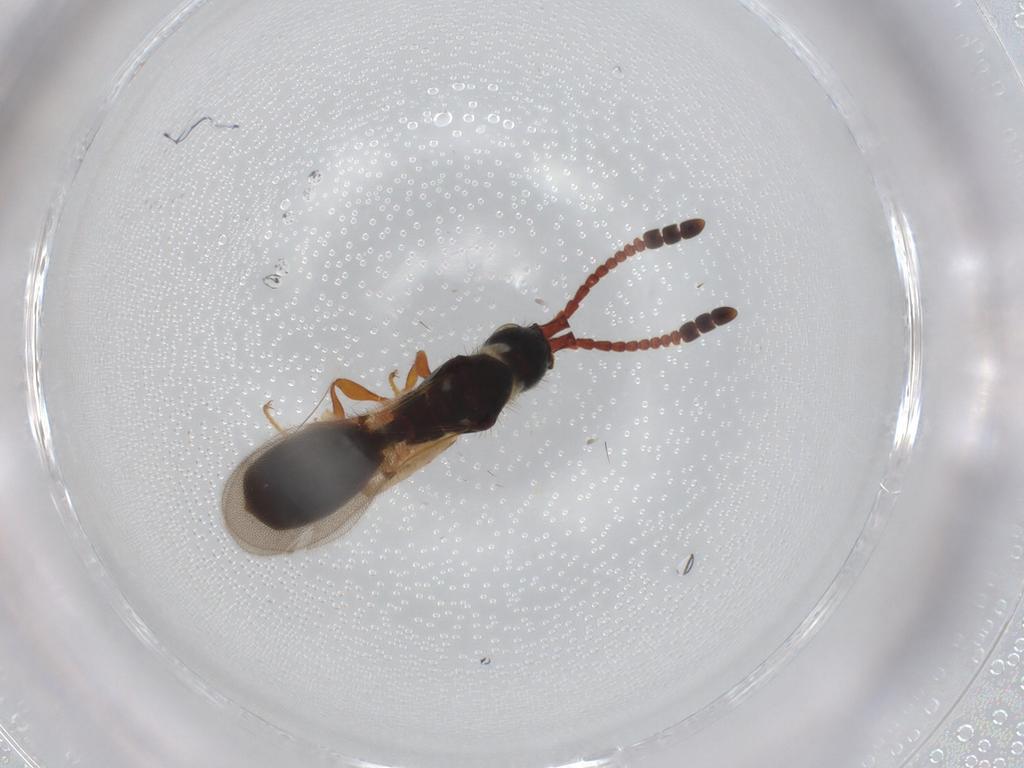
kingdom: Animalia
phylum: Arthropoda
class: Insecta
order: Hymenoptera
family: Diapriidae
